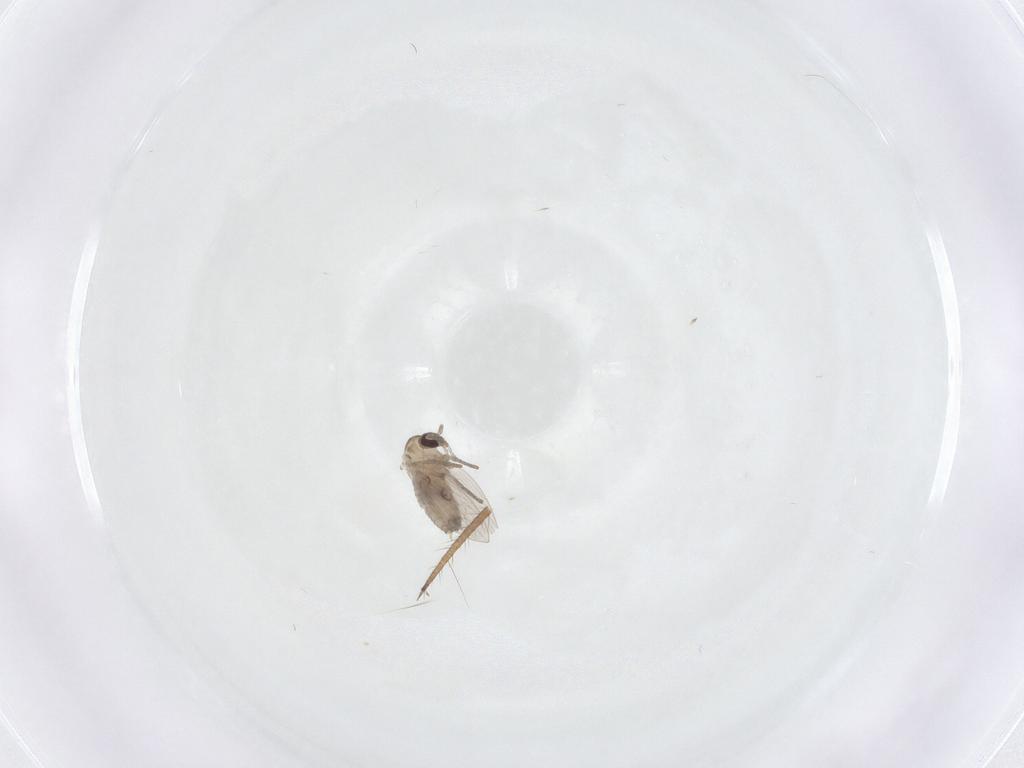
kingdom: Animalia
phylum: Arthropoda
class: Insecta
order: Diptera
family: Psychodidae
